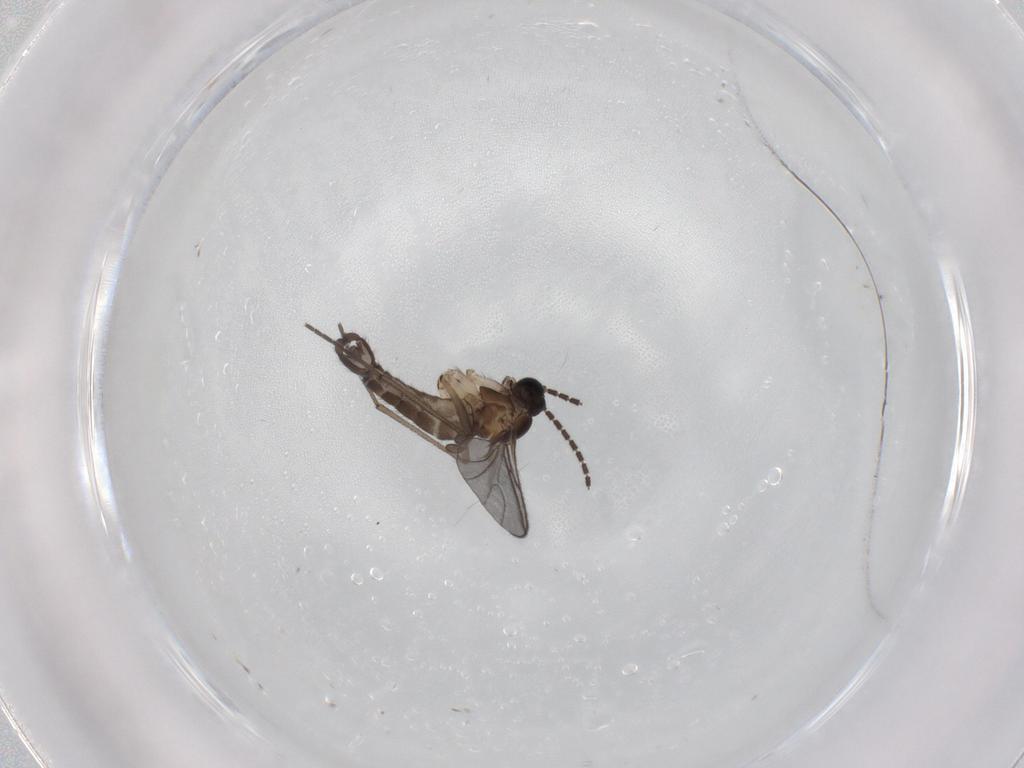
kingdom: Animalia
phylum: Arthropoda
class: Insecta
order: Diptera
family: Sciaridae
